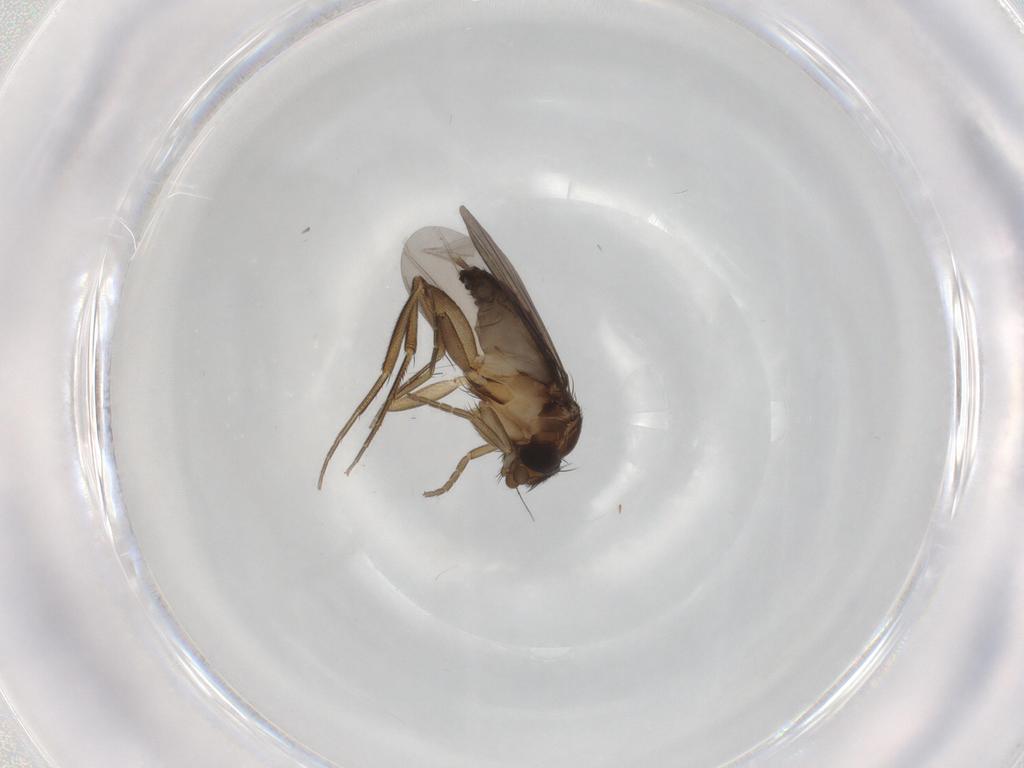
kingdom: Animalia
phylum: Arthropoda
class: Insecta
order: Diptera
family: Phoridae
